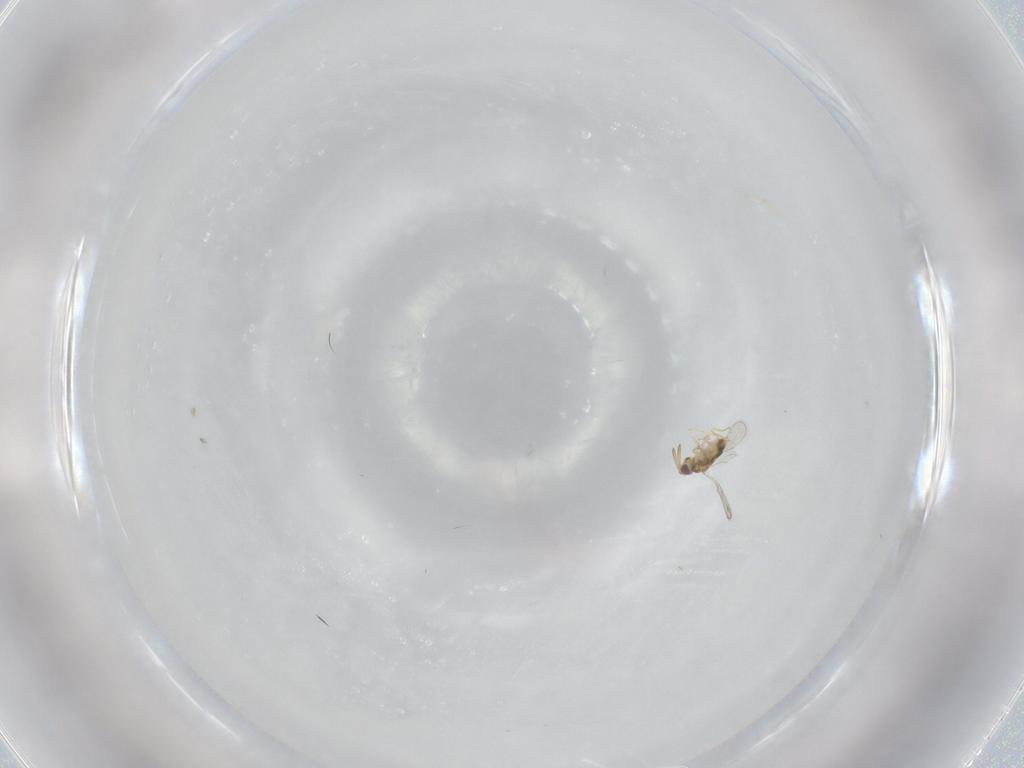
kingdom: Animalia
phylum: Arthropoda
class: Insecta
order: Hymenoptera
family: Aphelinidae
